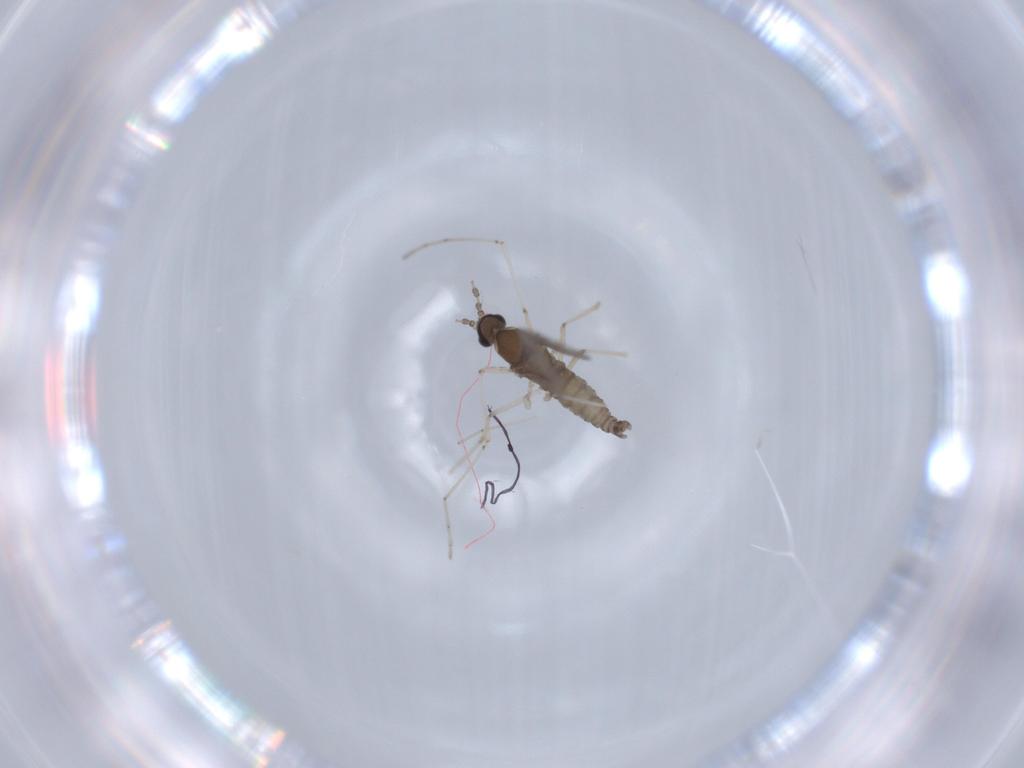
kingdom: Animalia
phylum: Arthropoda
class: Insecta
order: Diptera
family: Cecidomyiidae
